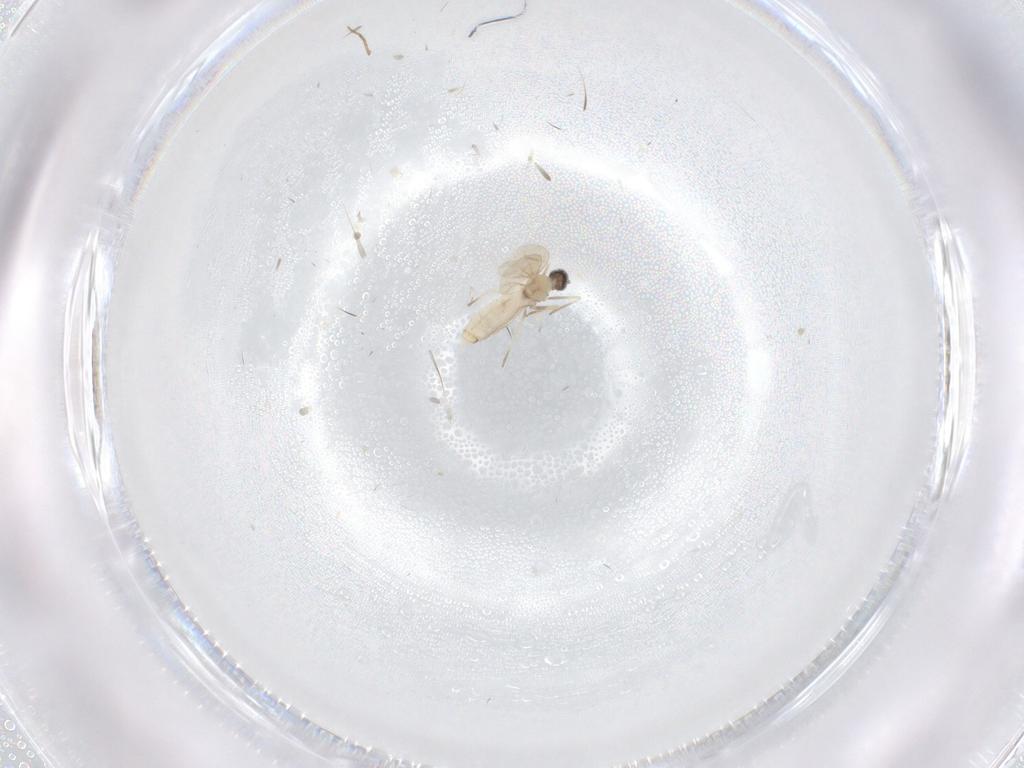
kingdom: Animalia
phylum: Arthropoda
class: Insecta
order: Diptera
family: Cecidomyiidae
